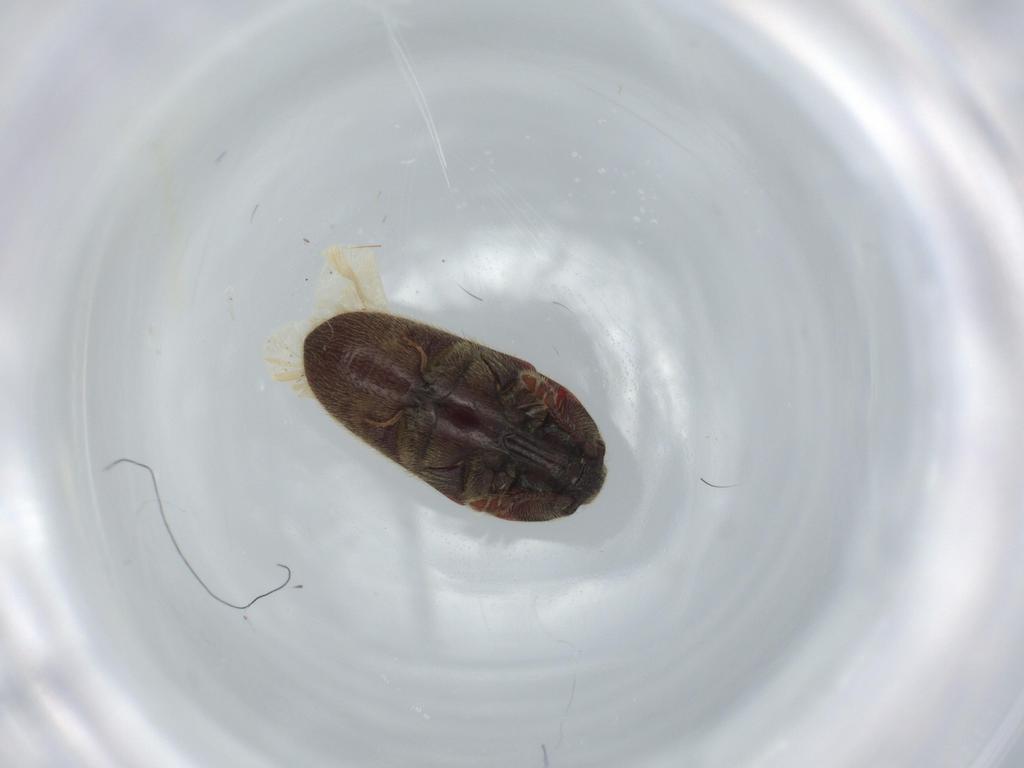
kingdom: Animalia
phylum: Arthropoda
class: Insecta
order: Coleoptera
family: Throscidae
